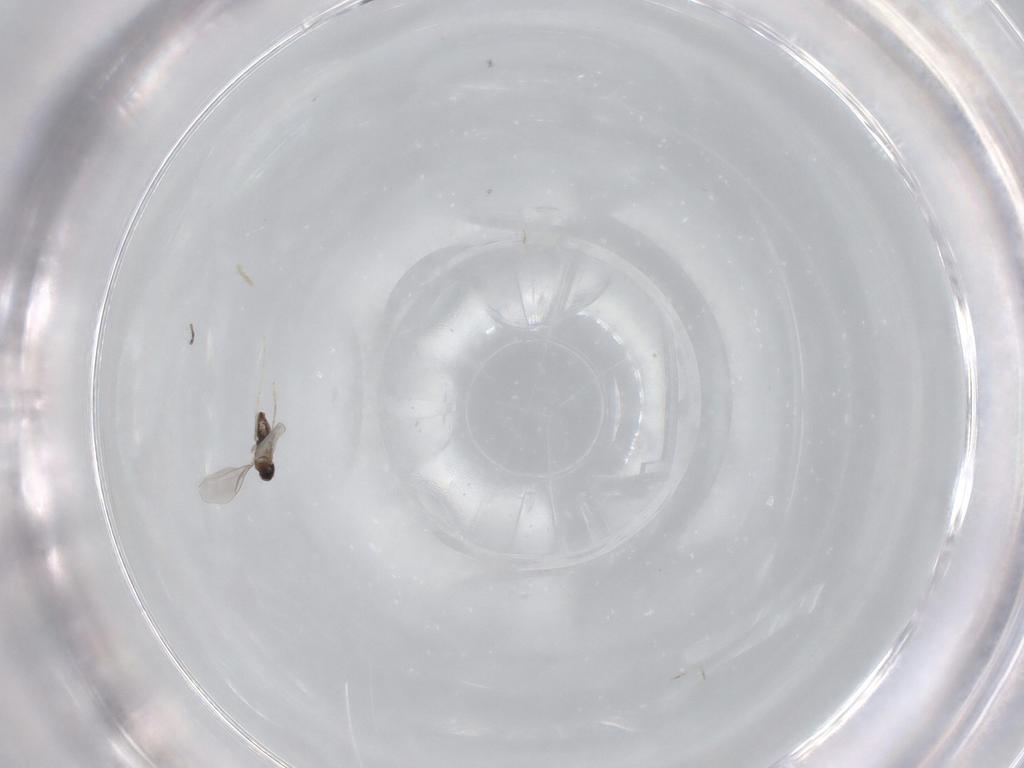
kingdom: Animalia
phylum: Arthropoda
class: Insecta
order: Diptera
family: Cecidomyiidae
